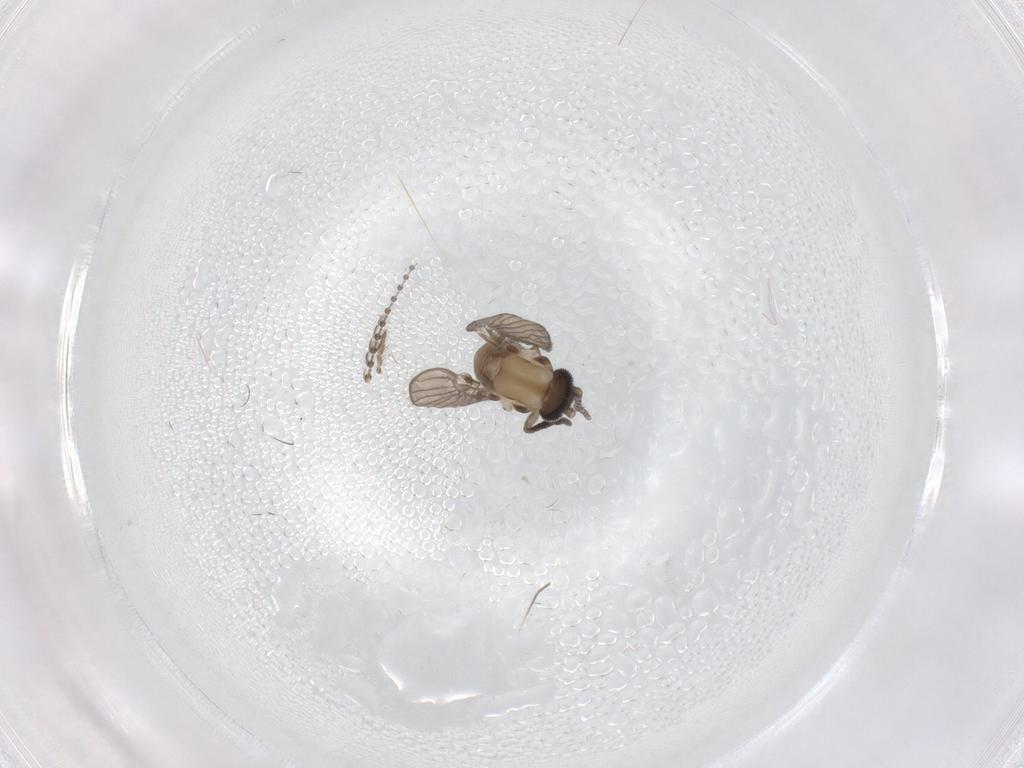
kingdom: Animalia
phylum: Arthropoda
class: Insecta
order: Diptera
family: Psychodidae
